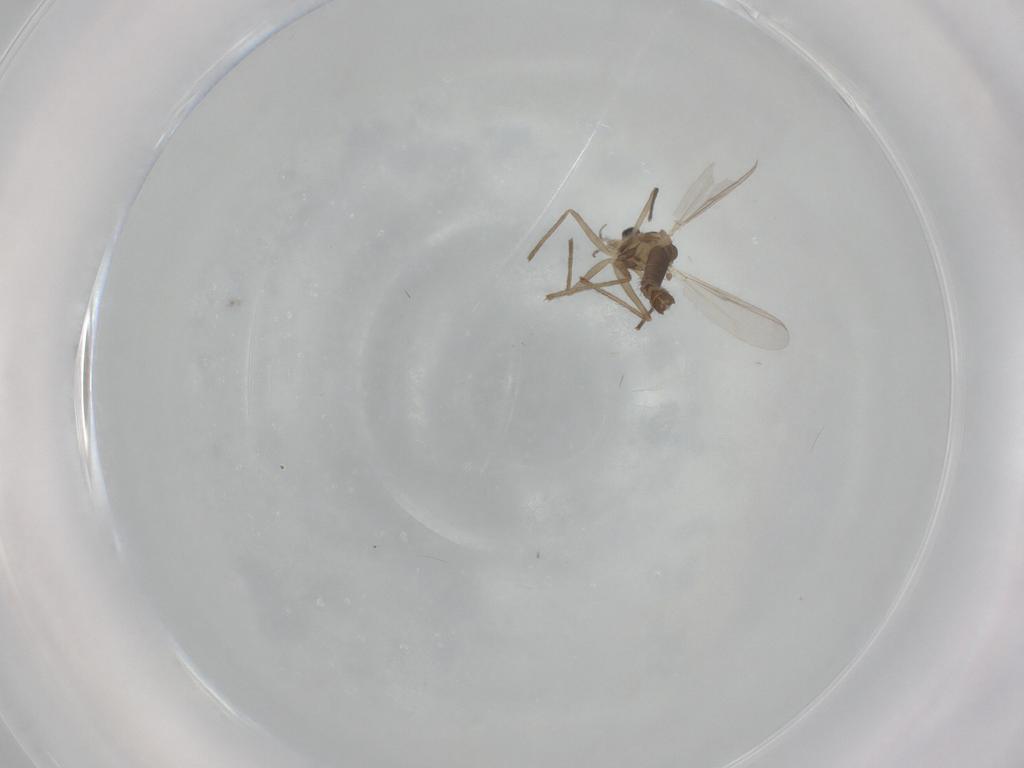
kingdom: Animalia
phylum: Arthropoda
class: Insecta
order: Diptera
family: Chironomidae
